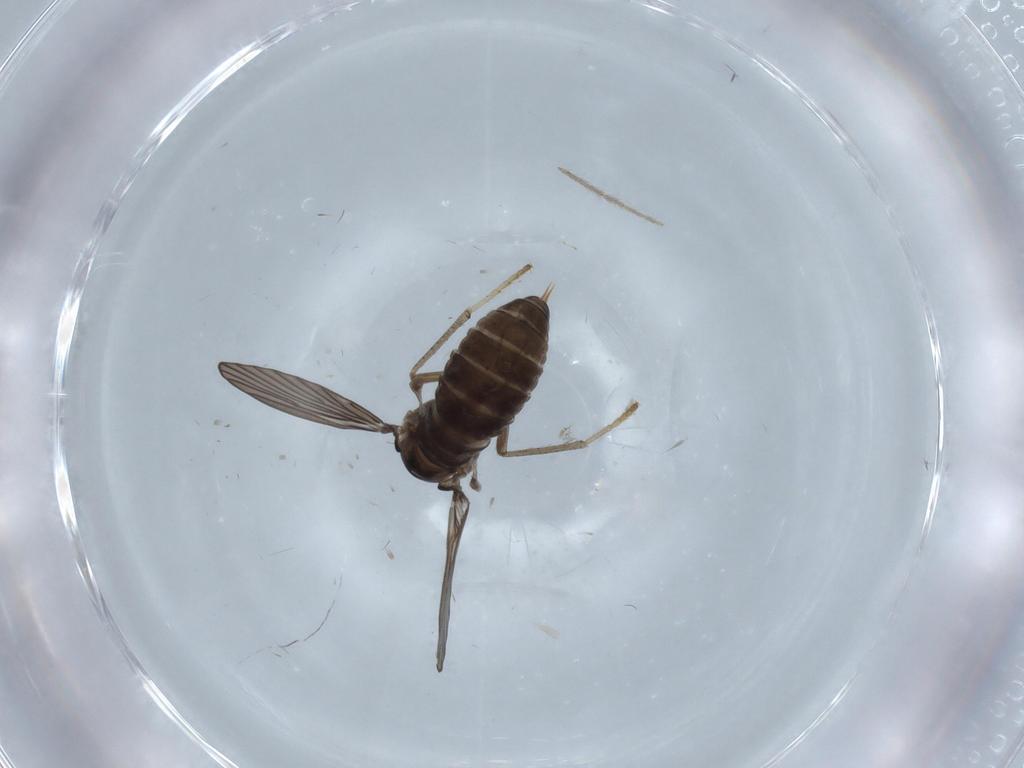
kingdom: Animalia
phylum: Arthropoda
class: Insecta
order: Diptera
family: Psychodidae
